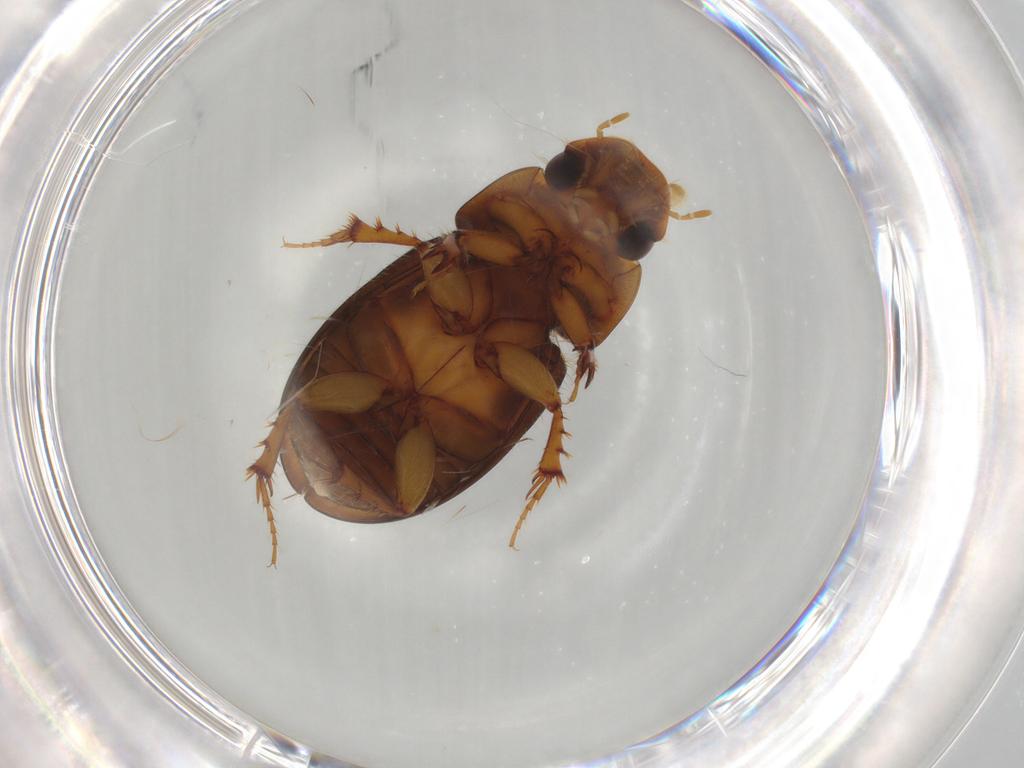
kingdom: Animalia
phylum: Arthropoda
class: Insecta
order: Coleoptera
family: Scarabaeidae
